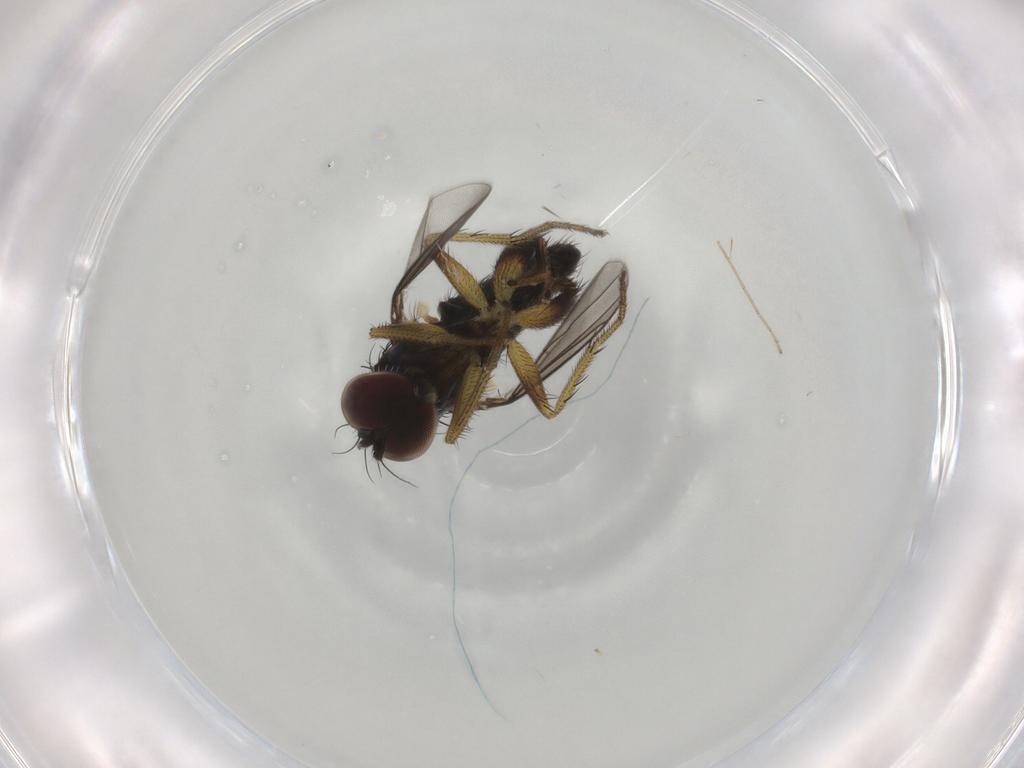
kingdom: Animalia
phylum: Arthropoda
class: Insecta
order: Diptera
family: Dolichopodidae
